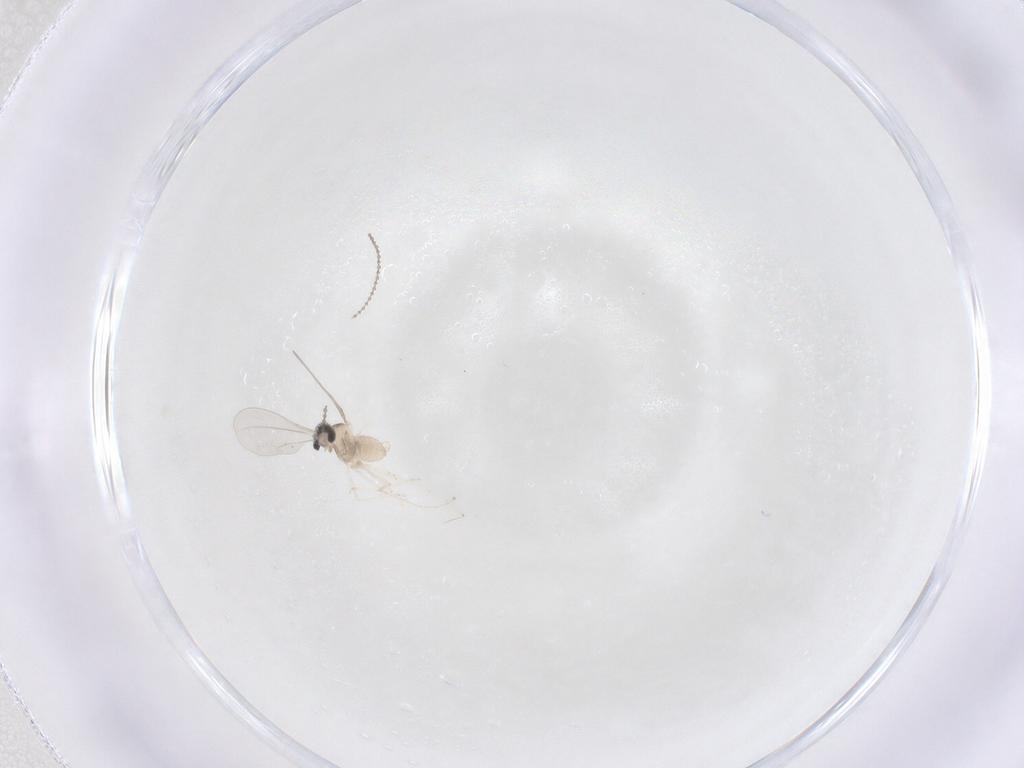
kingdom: Animalia
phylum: Arthropoda
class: Insecta
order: Diptera
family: Cecidomyiidae
